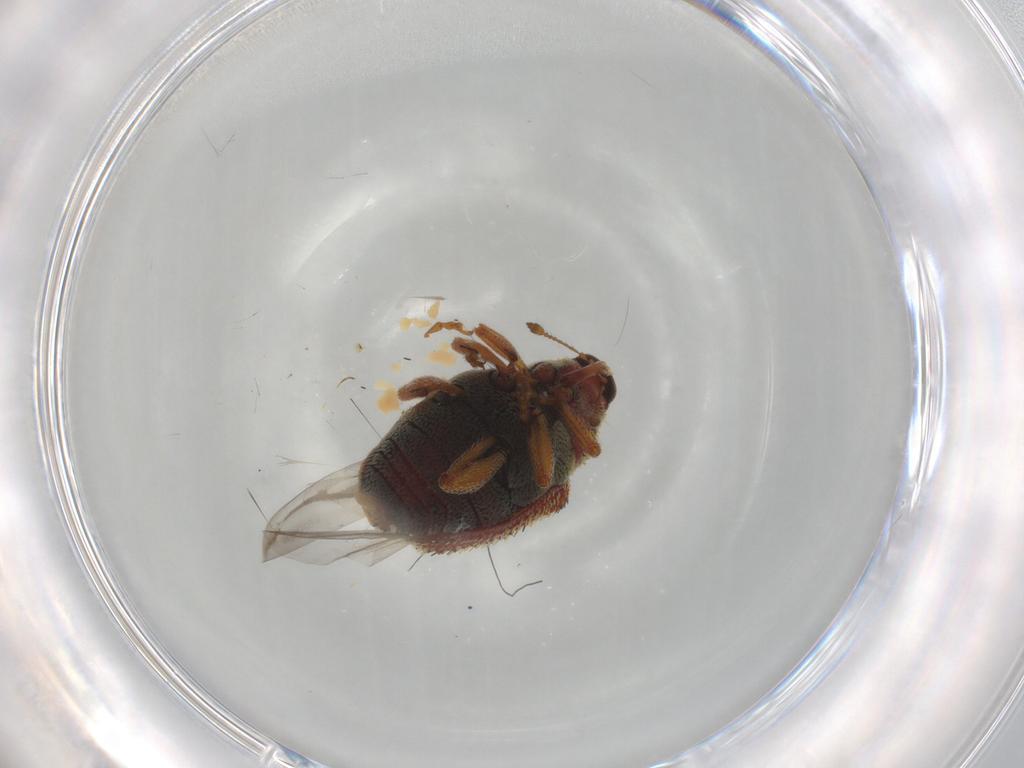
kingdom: Animalia
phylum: Arthropoda
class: Insecta
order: Coleoptera
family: Curculionidae
